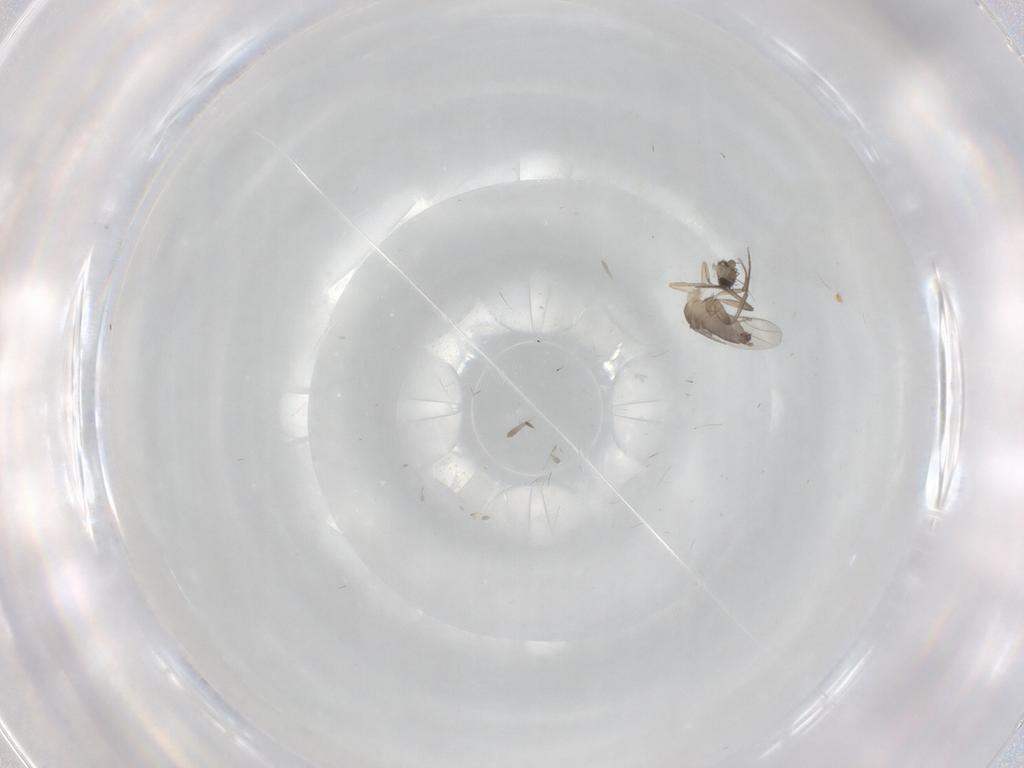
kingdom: Animalia
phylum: Arthropoda
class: Insecta
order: Diptera
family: Phoridae
